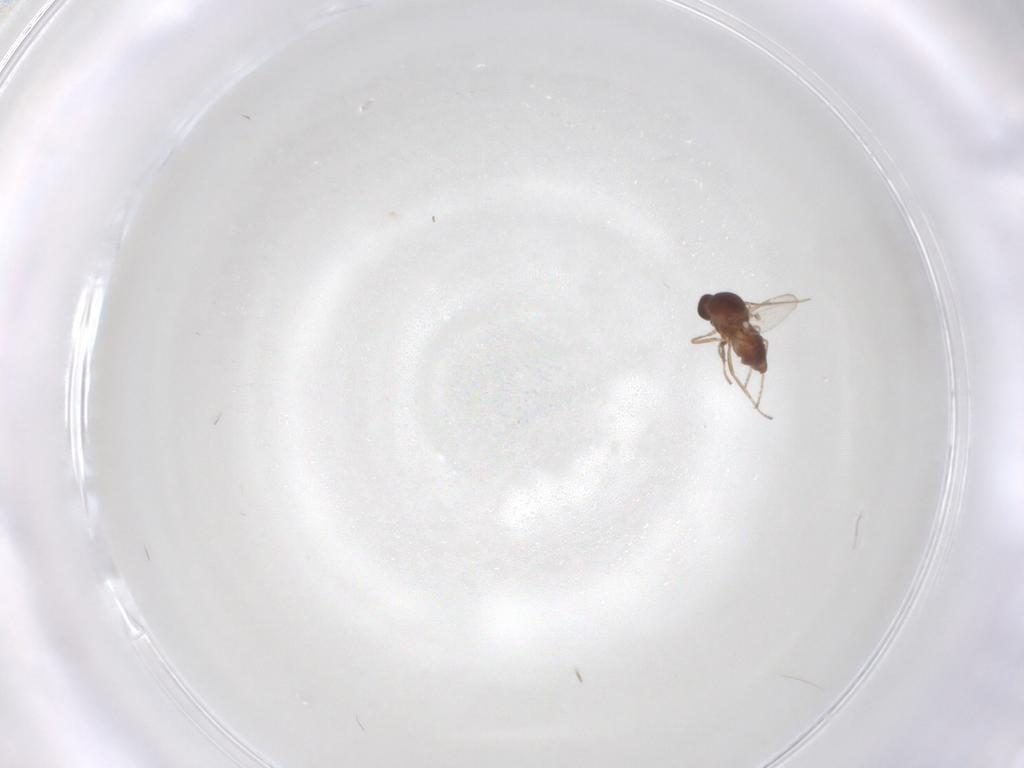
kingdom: Animalia
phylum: Arthropoda
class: Insecta
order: Diptera
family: Ceratopogonidae
